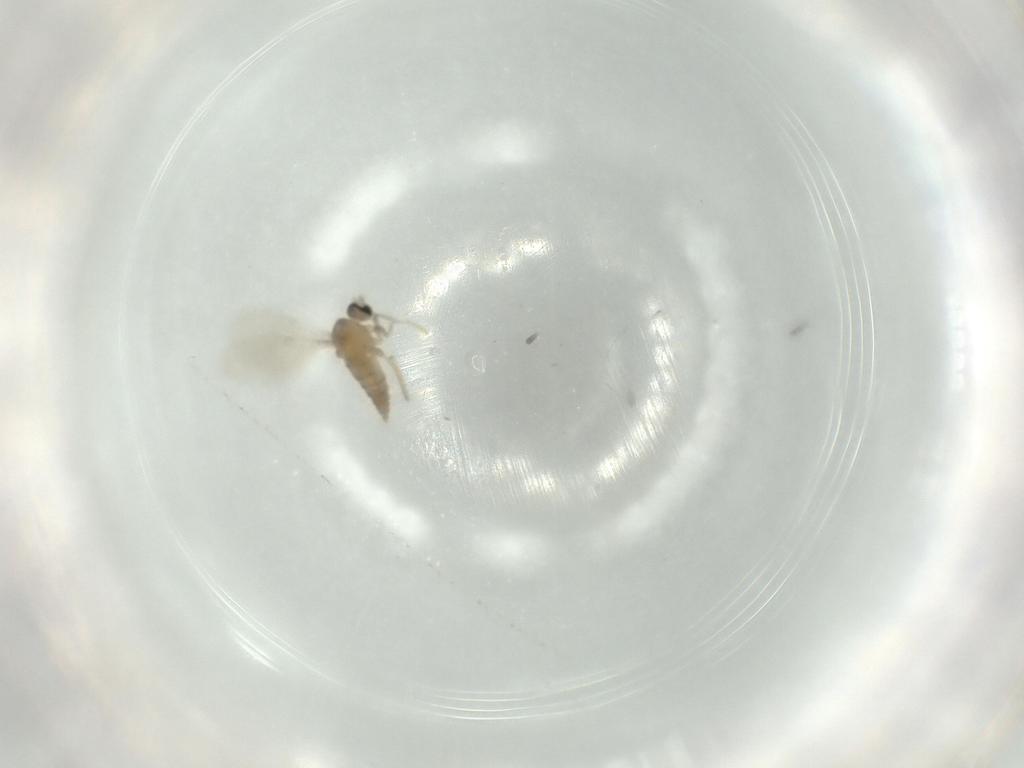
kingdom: Animalia
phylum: Arthropoda
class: Insecta
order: Diptera
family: Cecidomyiidae
